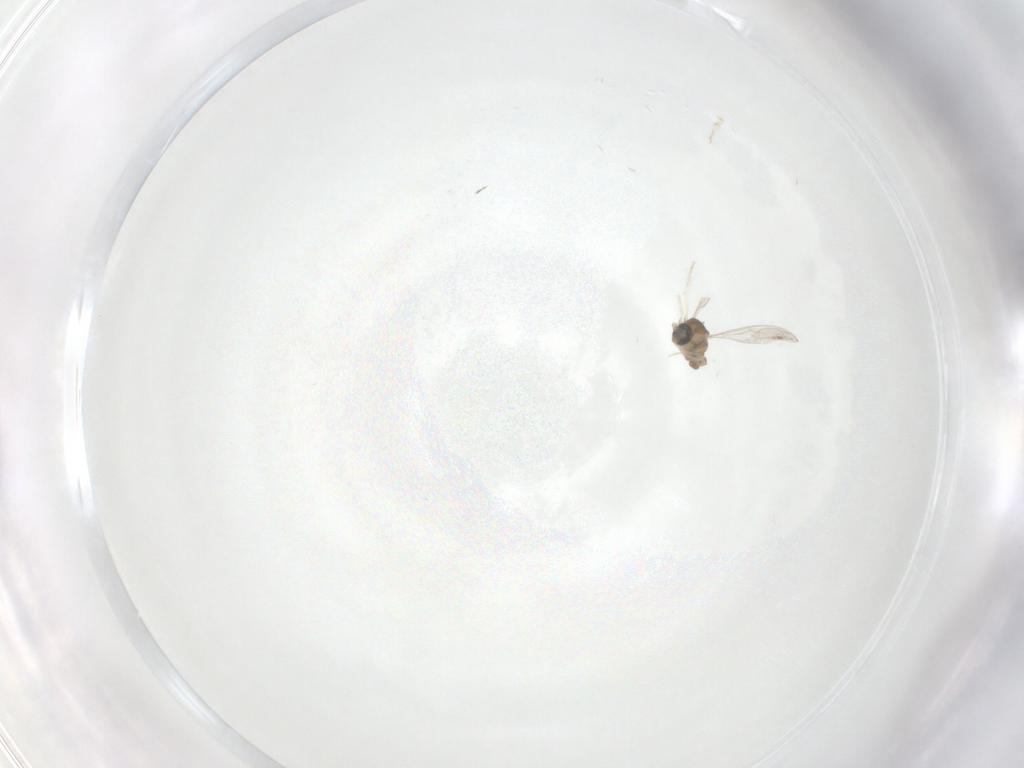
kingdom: Animalia
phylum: Arthropoda
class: Insecta
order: Diptera
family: Cecidomyiidae
